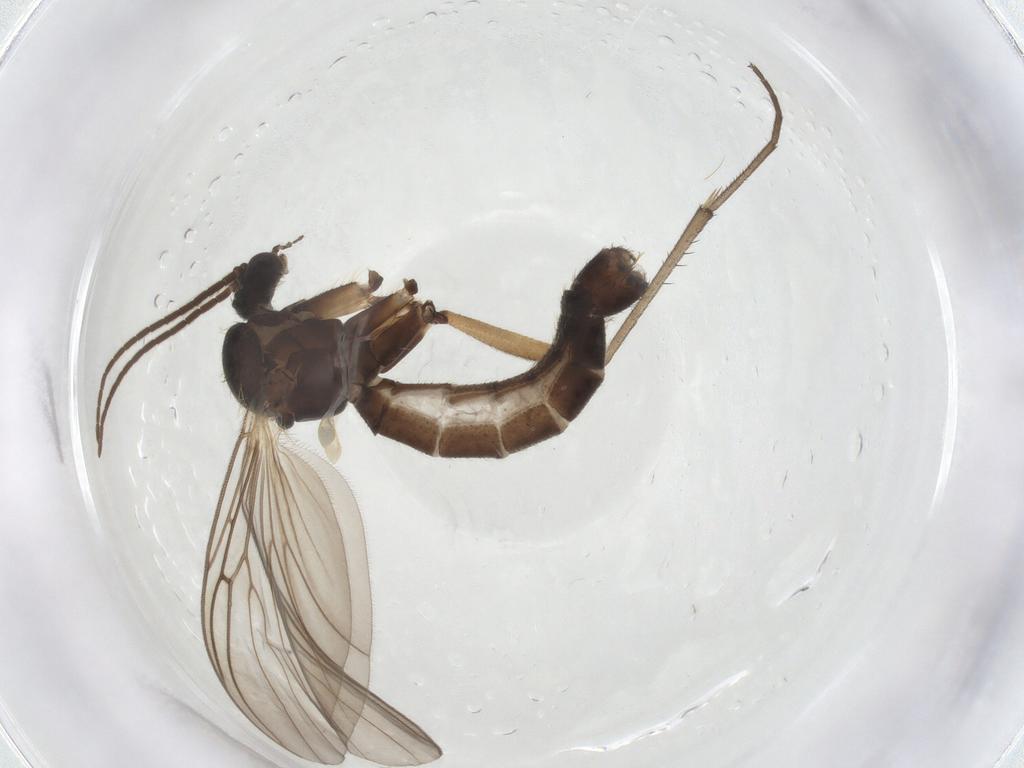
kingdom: Animalia
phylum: Arthropoda
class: Insecta
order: Diptera
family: Mycetophilidae
